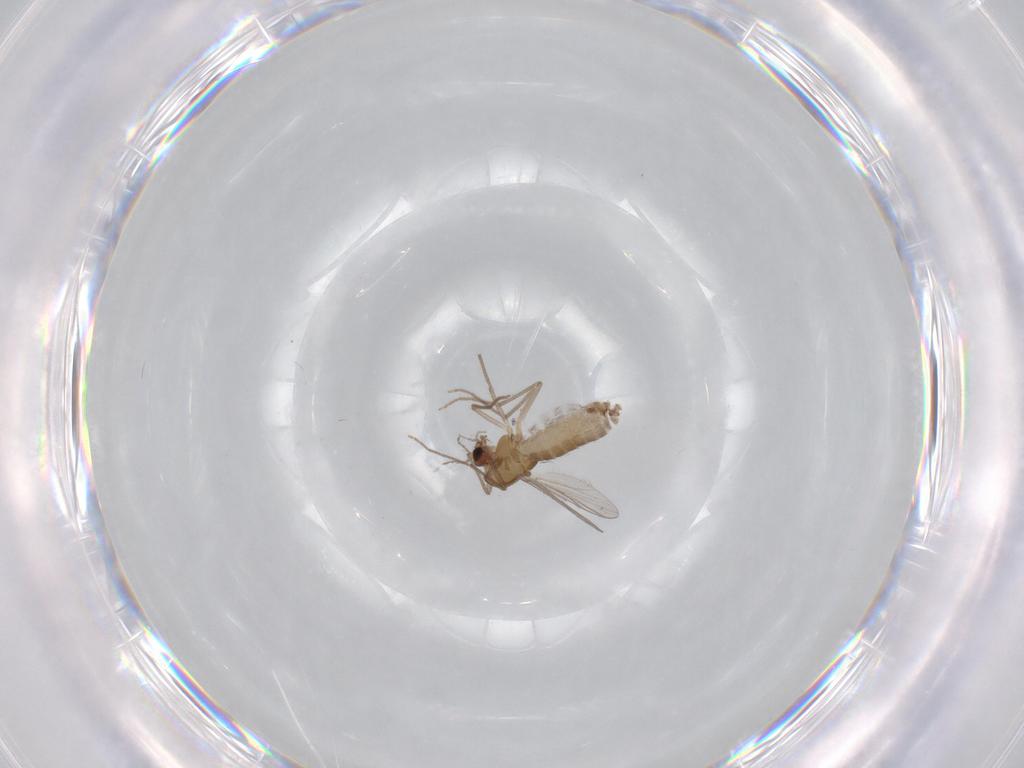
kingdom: Animalia
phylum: Arthropoda
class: Insecta
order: Diptera
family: Chironomidae
